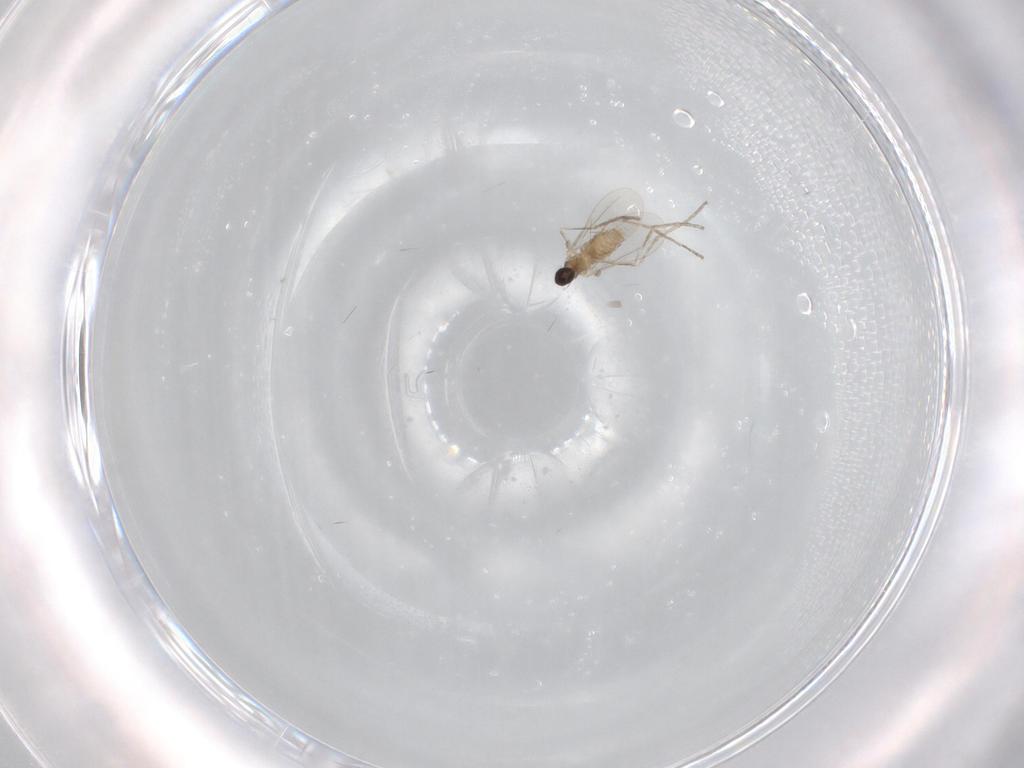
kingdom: Animalia
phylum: Arthropoda
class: Insecta
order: Diptera
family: Cecidomyiidae
